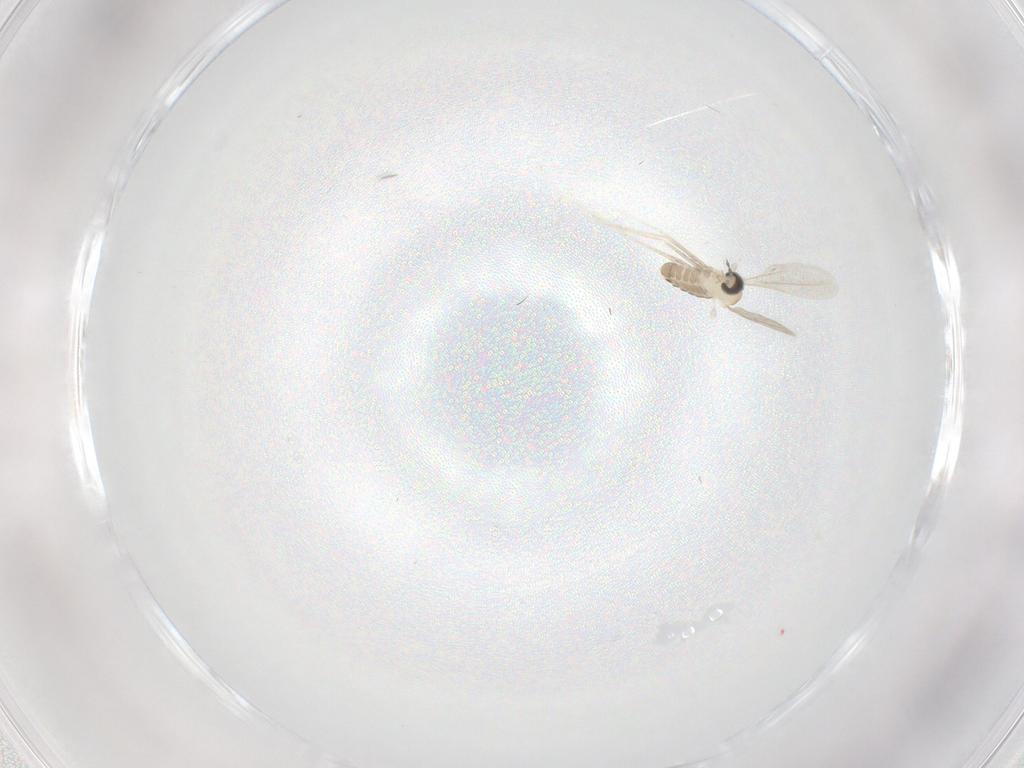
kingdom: Animalia
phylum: Arthropoda
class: Insecta
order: Diptera
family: Cecidomyiidae
